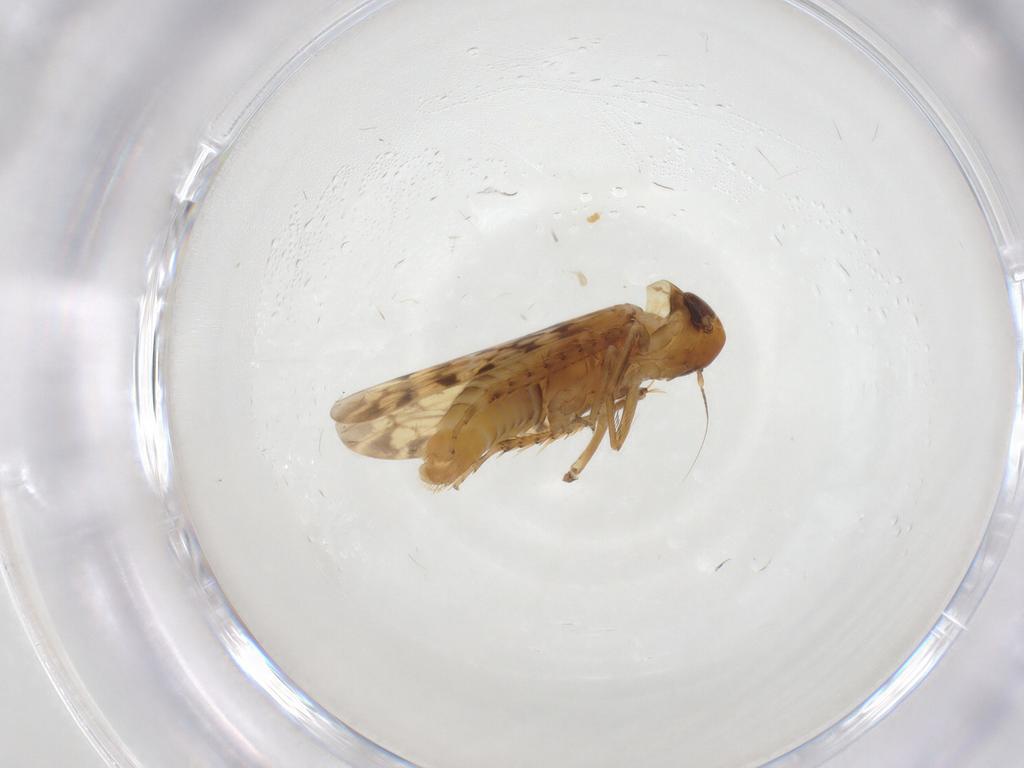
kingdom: Animalia
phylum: Arthropoda
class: Insecta
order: Hemiptera
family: Cicadellidae
